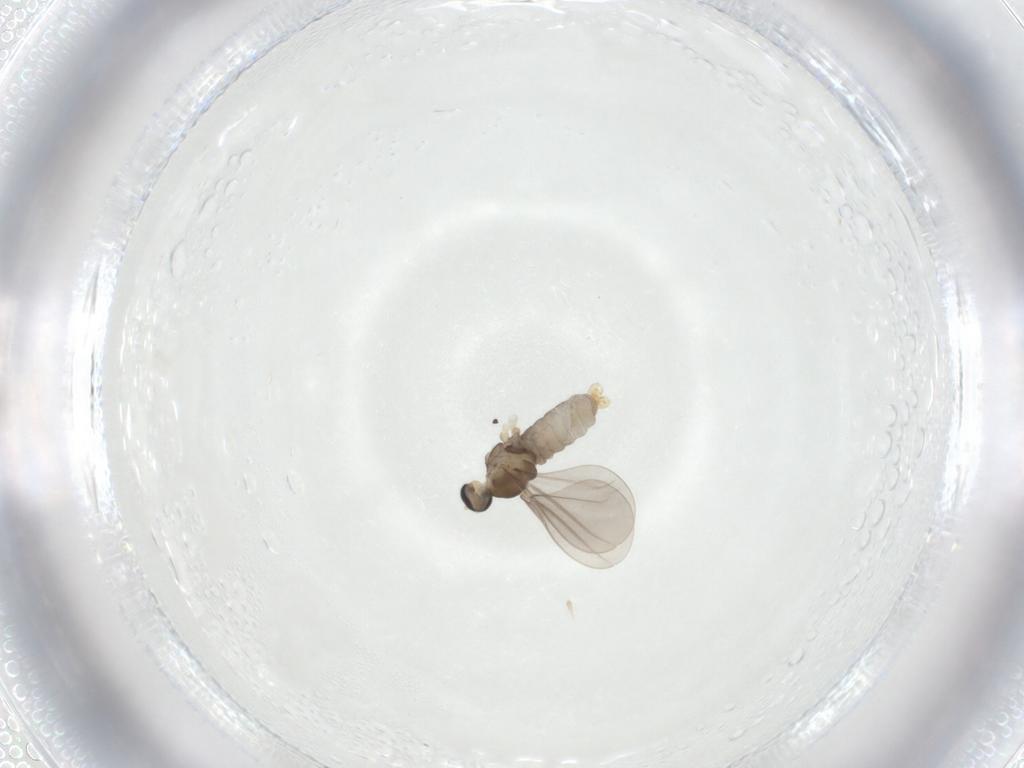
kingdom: Animalia
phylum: Arthropoda
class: Insecta
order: Diptera
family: Cecidomyiidae
